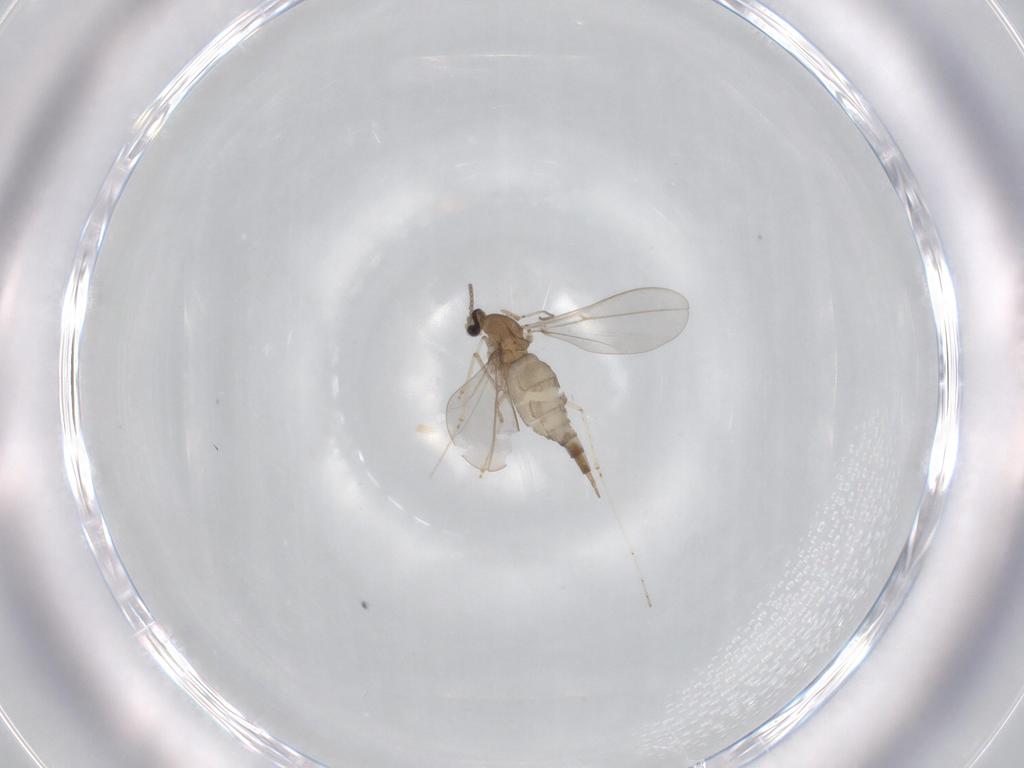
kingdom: Animalia
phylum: Arthropoda
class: Insecta
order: Diptera
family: Cecidomyiidae
